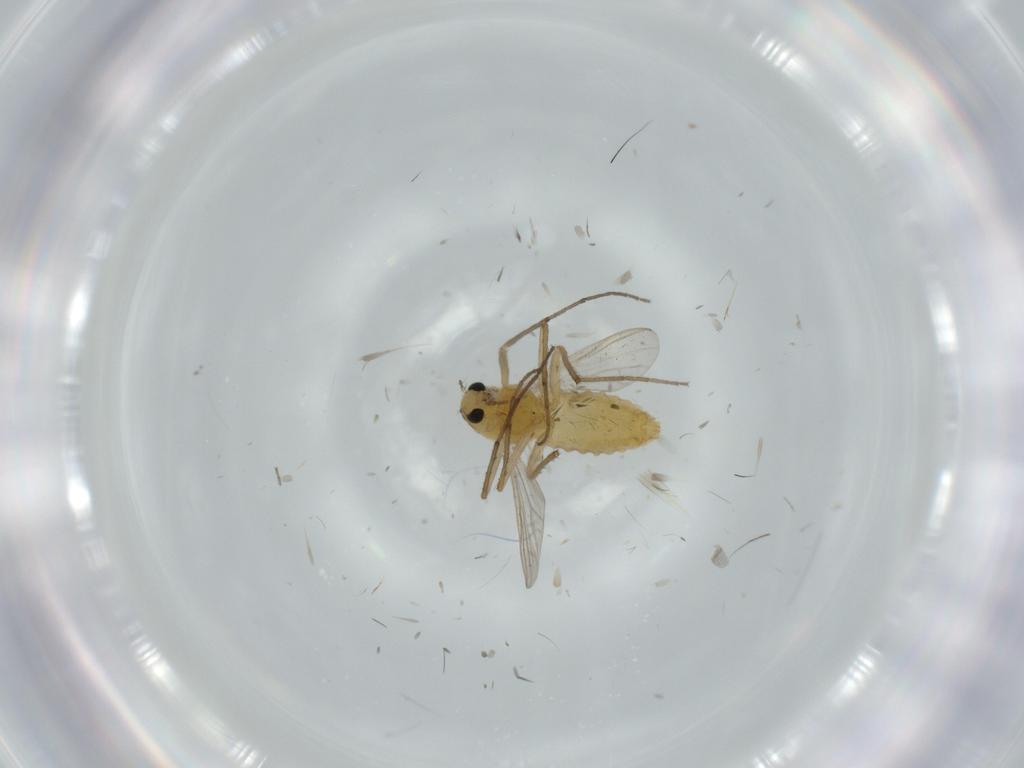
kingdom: Animalia
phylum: Arthropoda
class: Insecta
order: Diptera
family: Chironomidae
